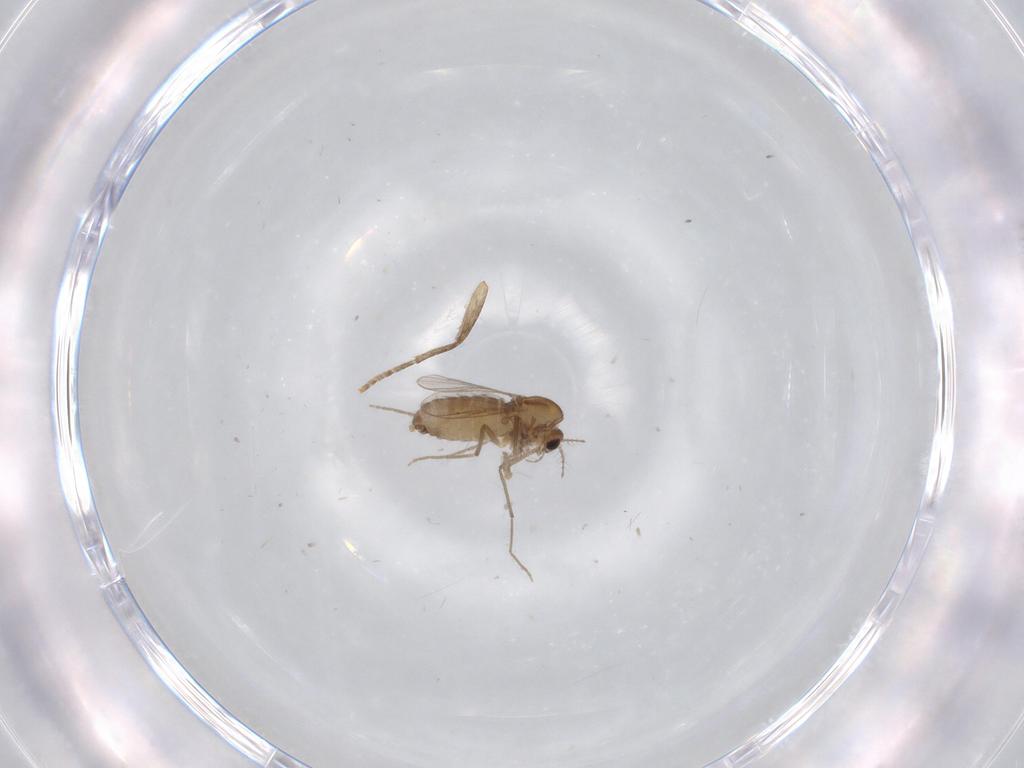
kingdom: Animalia
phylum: Arthropoda
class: Insecta
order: Diptera
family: Chironomidae
